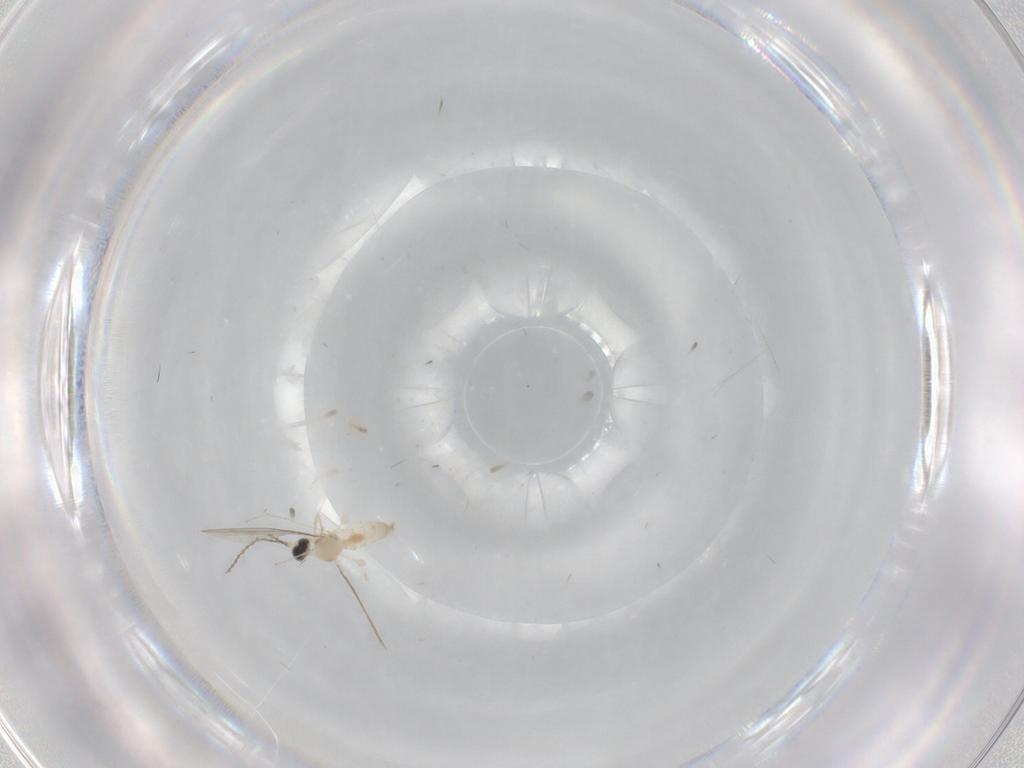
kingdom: Animalia
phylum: Arthropoda
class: Insecta
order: Diptera
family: Cecidomyiidae
